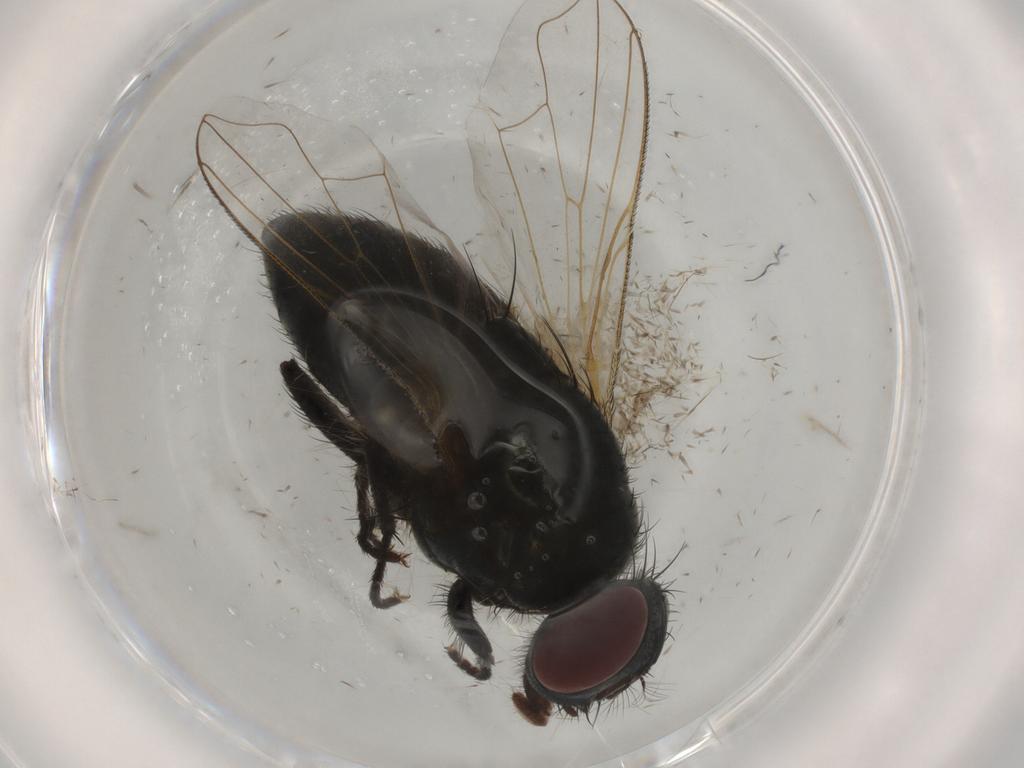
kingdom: Animalia
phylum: Arthropoda
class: Insecta
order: Diptera
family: Muscidae
